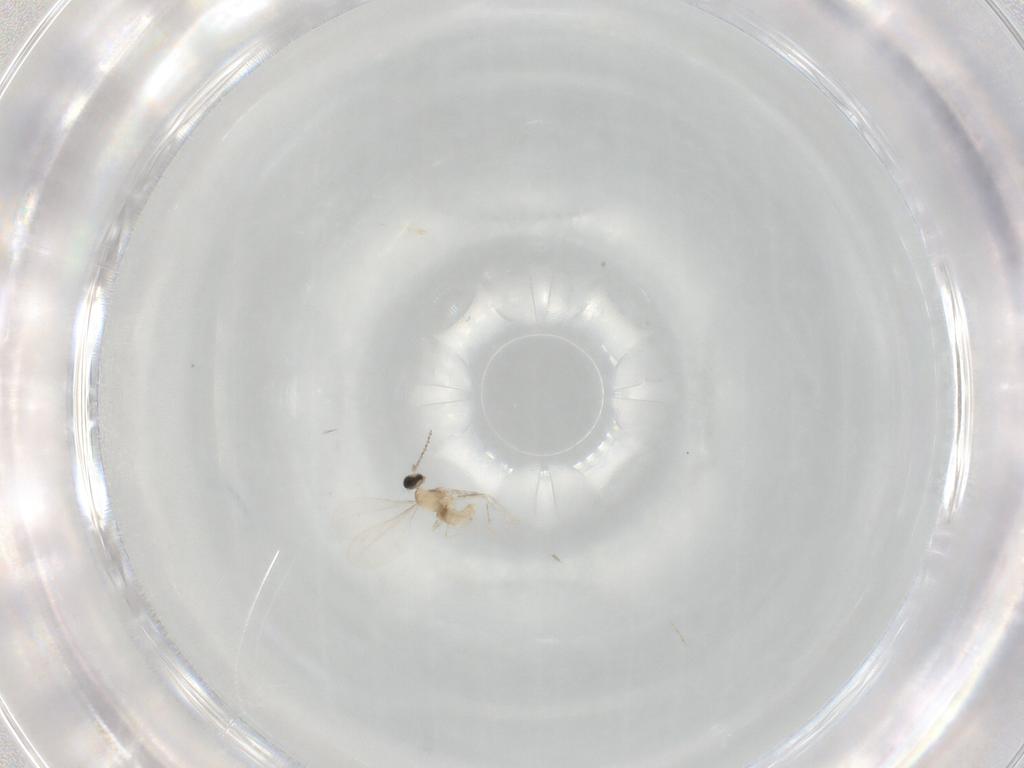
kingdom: Animalia
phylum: Arthropoda
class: Insecta
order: Diptera
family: Cecidomyiidae
